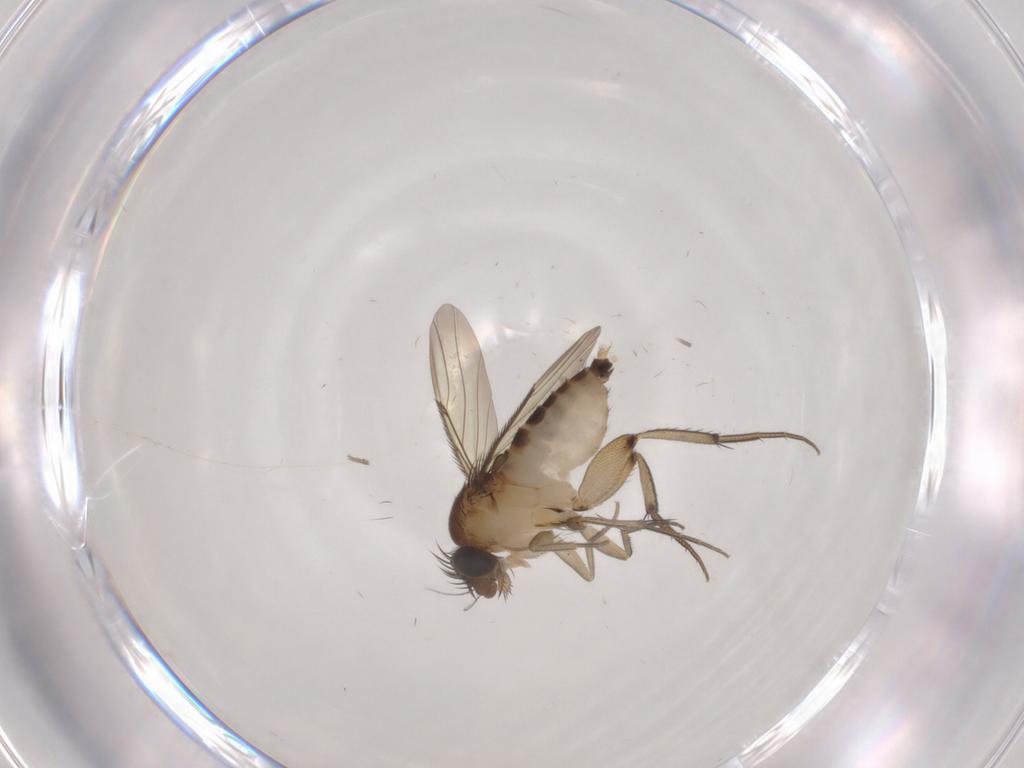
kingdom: Animalia
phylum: Arthropoda
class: Insecta
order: Diptera
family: Phoridae
